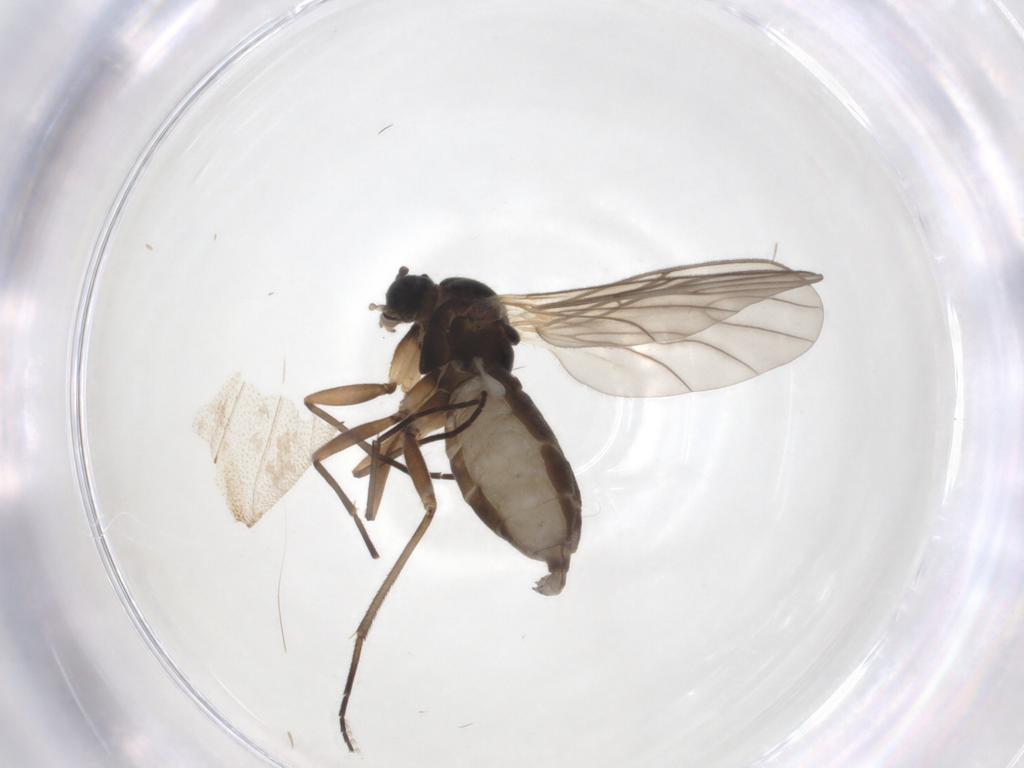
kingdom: Animalia
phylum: Arthropoda
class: Insecta
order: Diptera
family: Sciaridae
